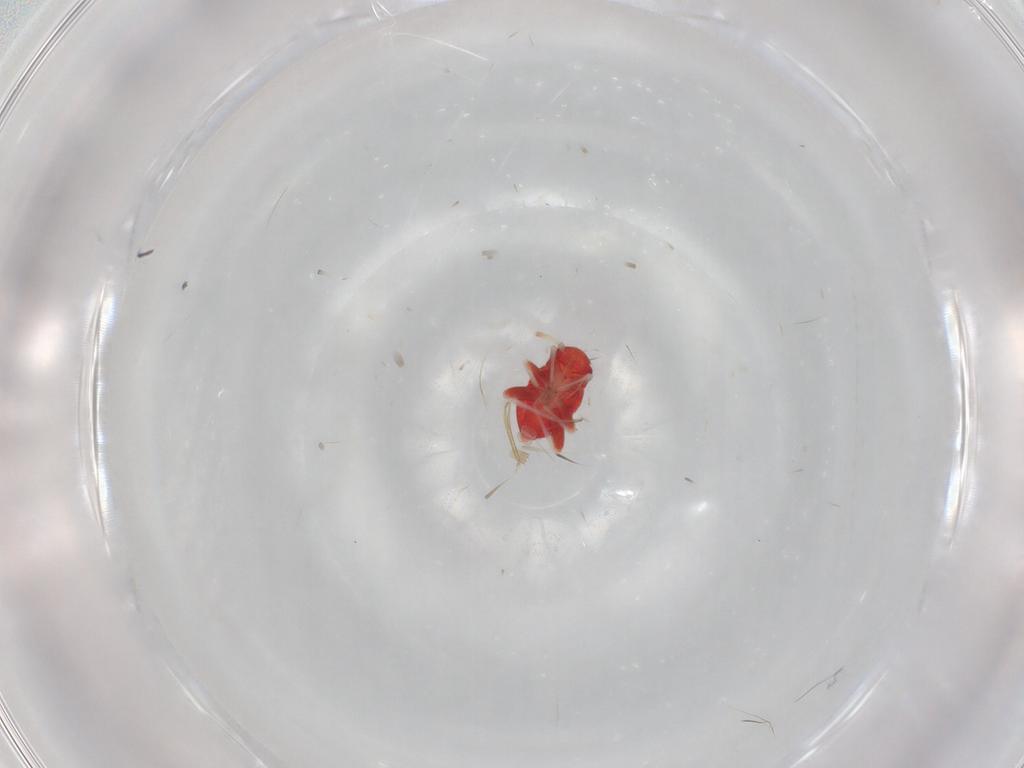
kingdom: Animalia
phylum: Arthropoda
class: Insecta
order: Hemiptera
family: Miridae
